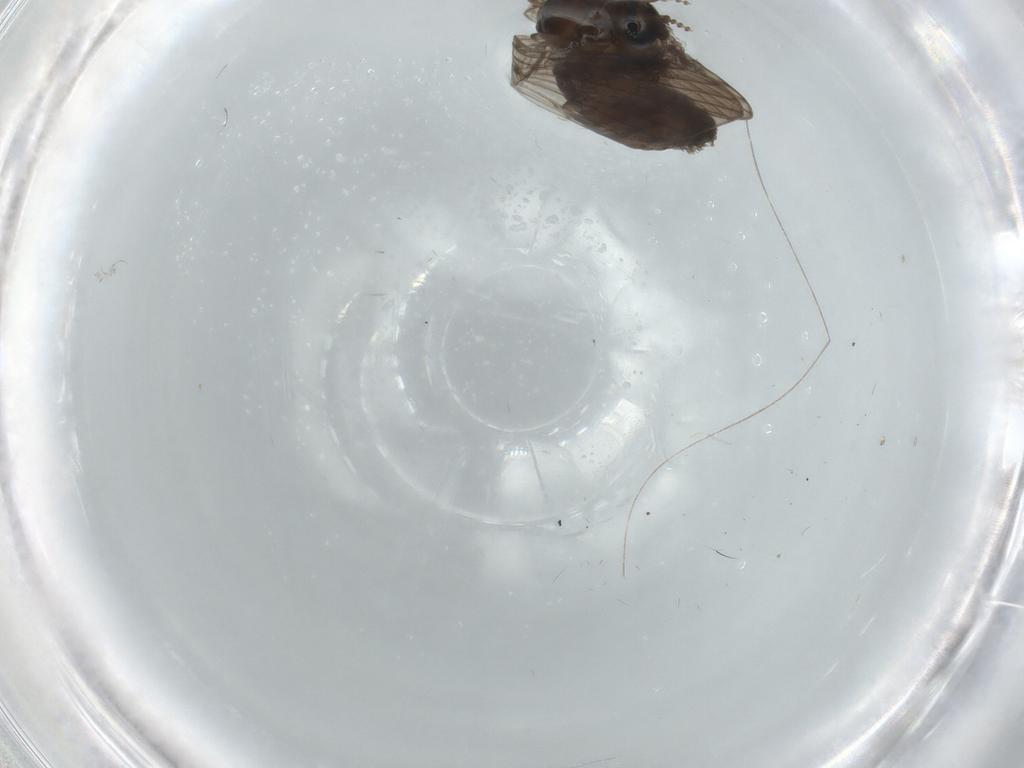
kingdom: Animalia
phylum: Arthropoda
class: Insecta
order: Diptera
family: Psychodidae
